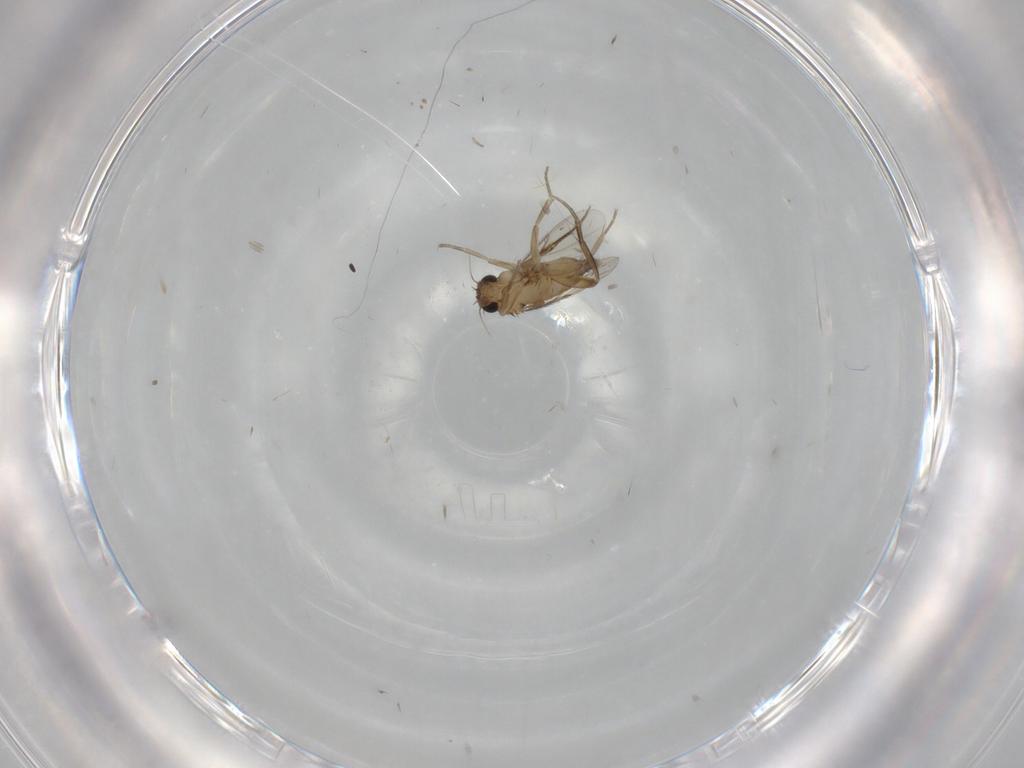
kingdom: Animalia
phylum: Arthropoda
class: Insecta
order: Diptera
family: Phoridae
